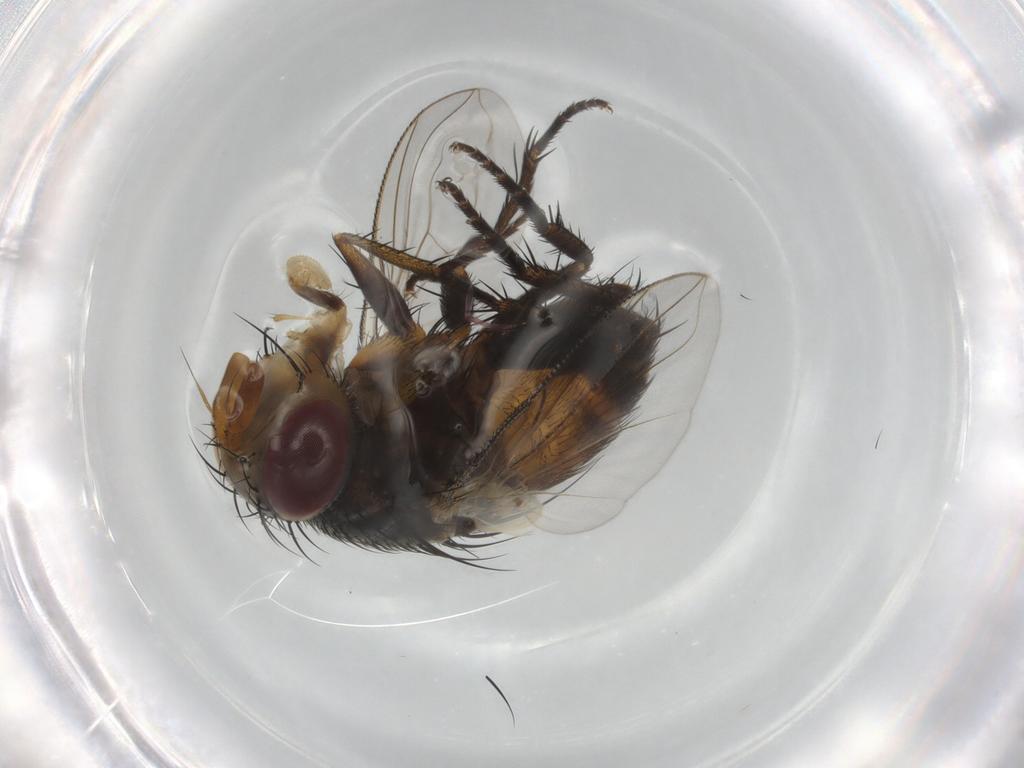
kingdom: Animalia
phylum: Arthropoda
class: Insecta
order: Diptera
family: Tachinidae
